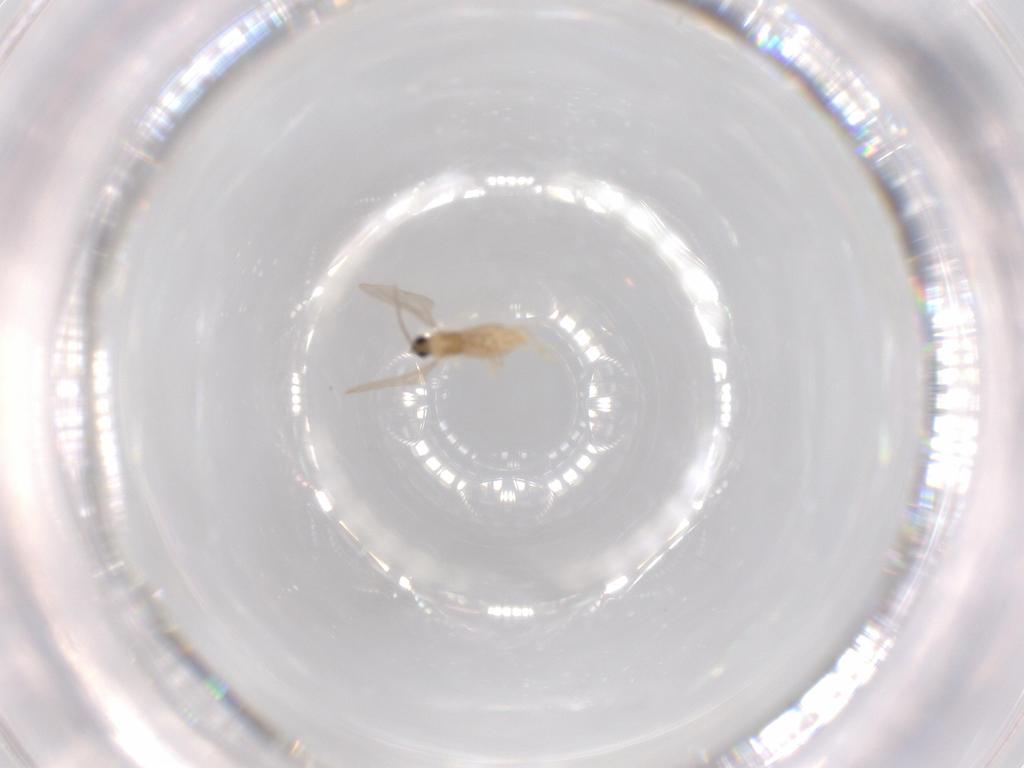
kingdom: Animalia
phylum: Arthropoda
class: Insecta
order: Diptera
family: Cecidomyiidae
